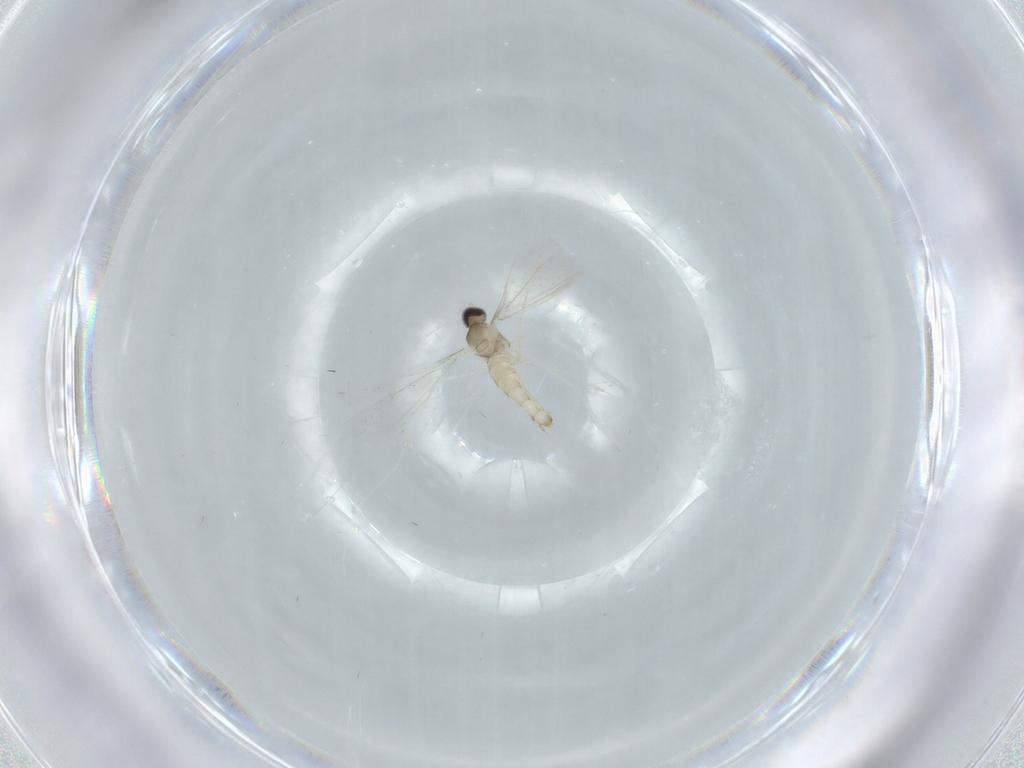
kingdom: Animalia
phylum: Arthropoda
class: Insecta
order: Diptera
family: Cecidomyiidae
